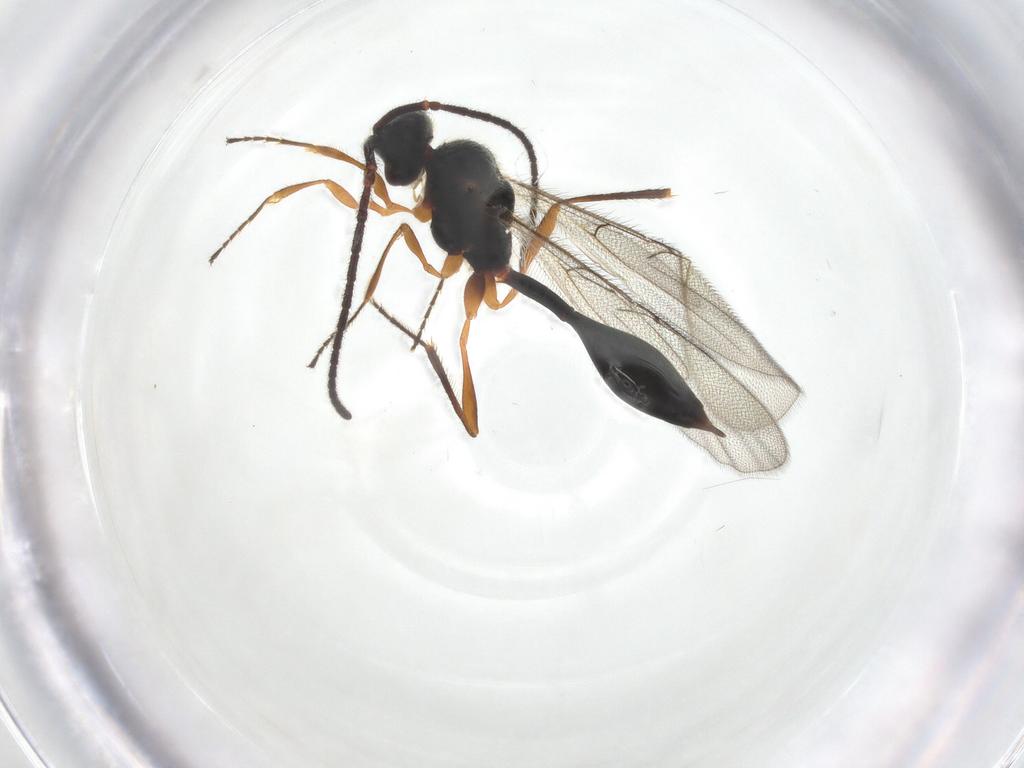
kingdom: Animalia
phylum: Arthropoda
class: Insecta
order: Hymenoptera
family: Diapriidae
